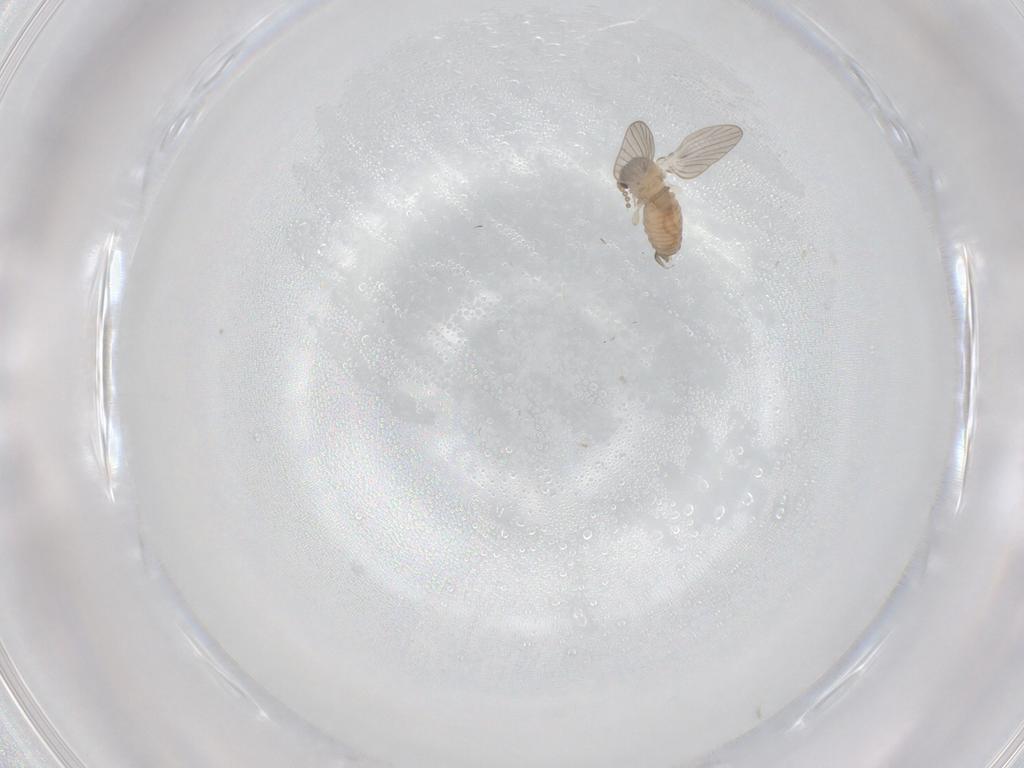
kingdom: Animalia
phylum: Arthropoda
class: Insecta
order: Diptera
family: Psychodidae
